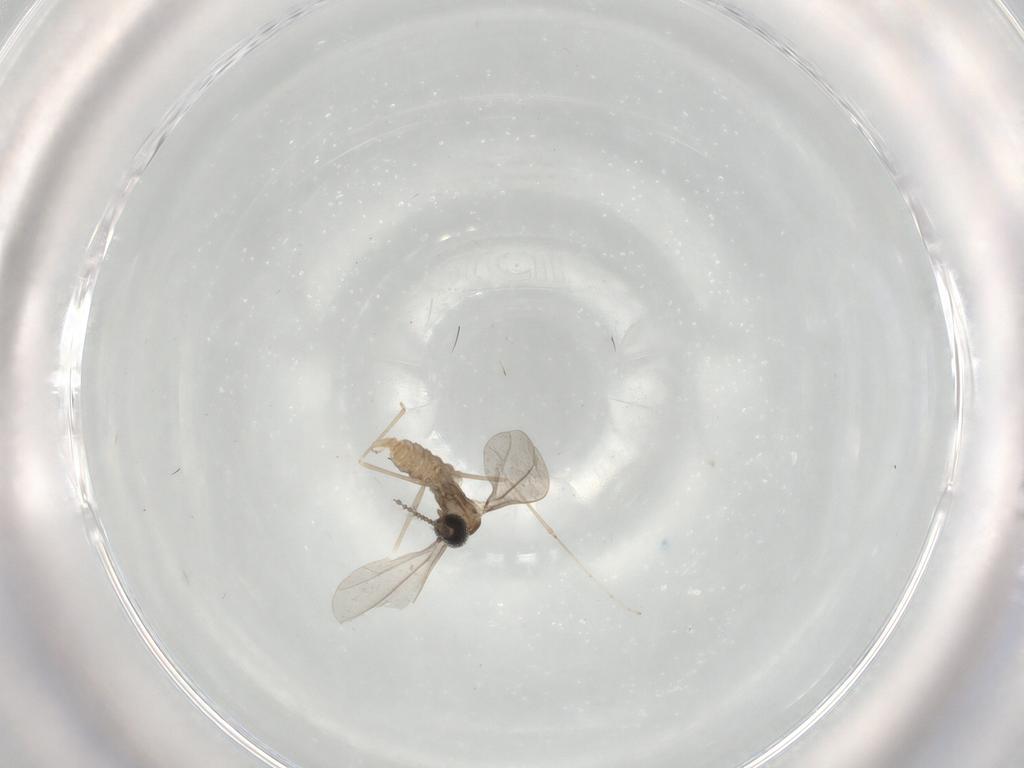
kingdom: Animalia
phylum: Arthropoda
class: Insecta
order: Diptera
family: Cecidomyiidae
